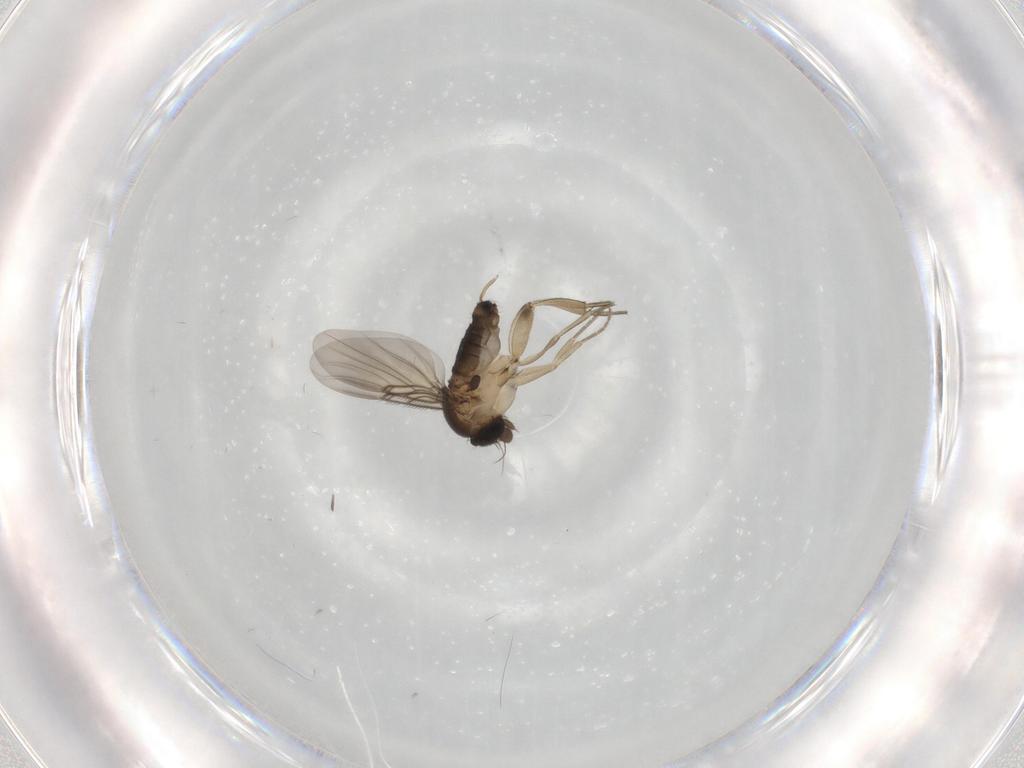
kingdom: Animalia
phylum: Arthropoda
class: Insecta
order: Diptera
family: Phoridae
